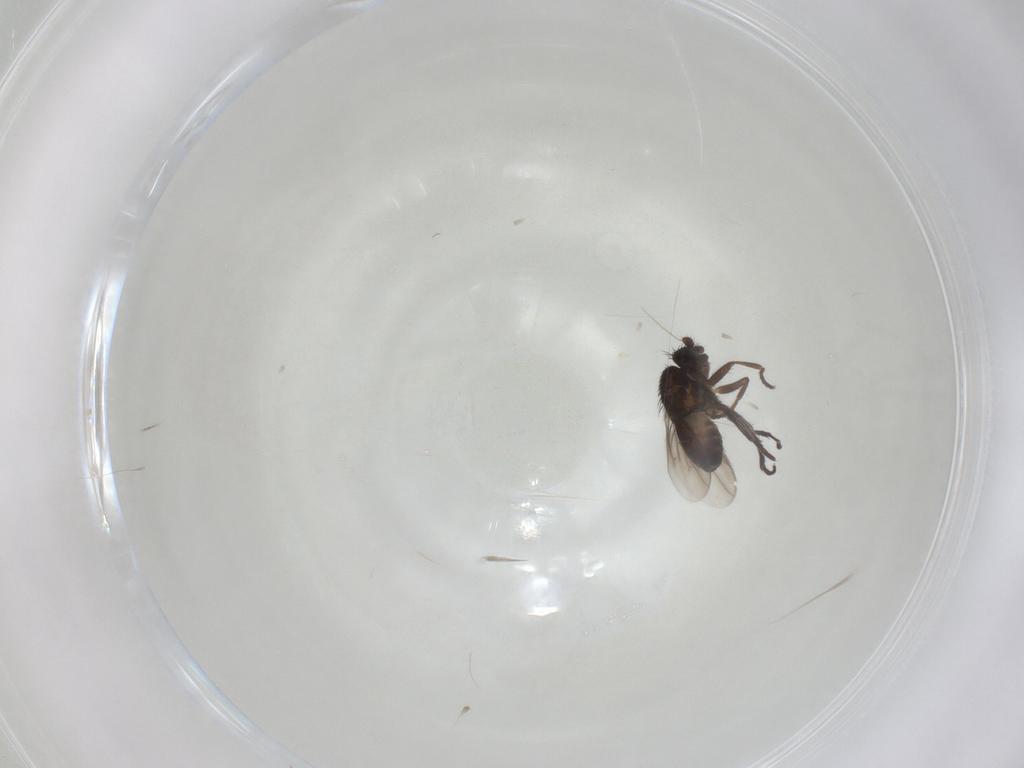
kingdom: Animalia
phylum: Arthropoda
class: Insecta
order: Diptera
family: Sphaeroceridae
